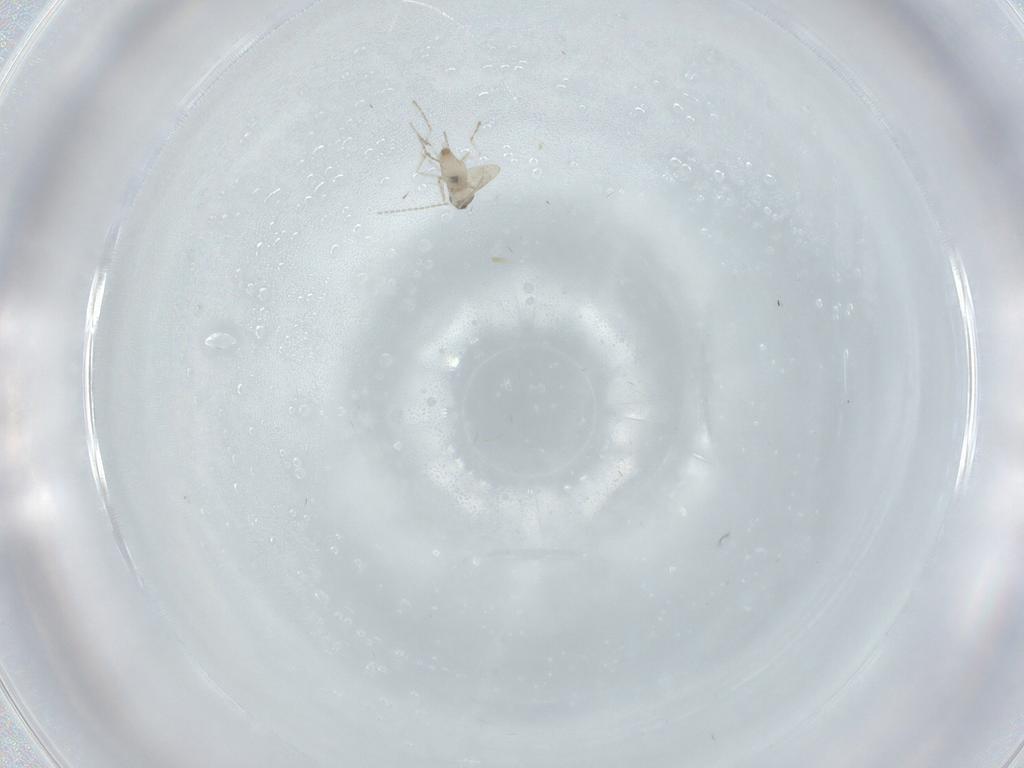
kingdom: Animalia
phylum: Arthropoda
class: Insecta
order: Diptera
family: Cecidomyiidae
